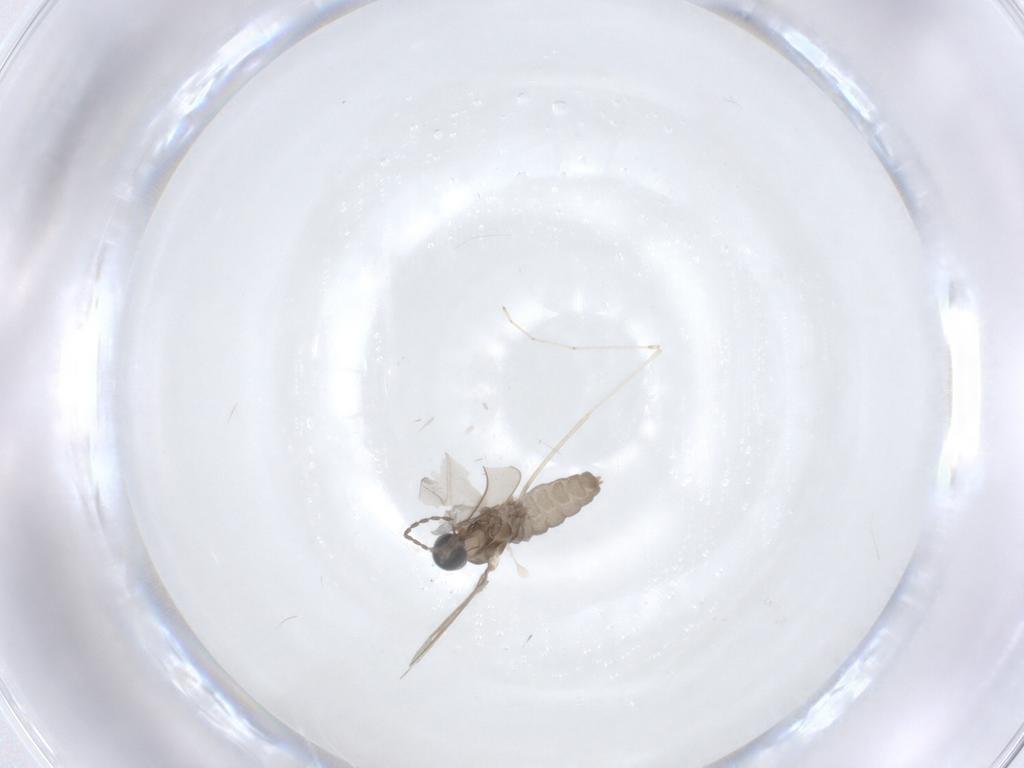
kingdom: Animalia
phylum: Arthropoda
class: Insecta
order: Diptera
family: Cecidomyiidae
